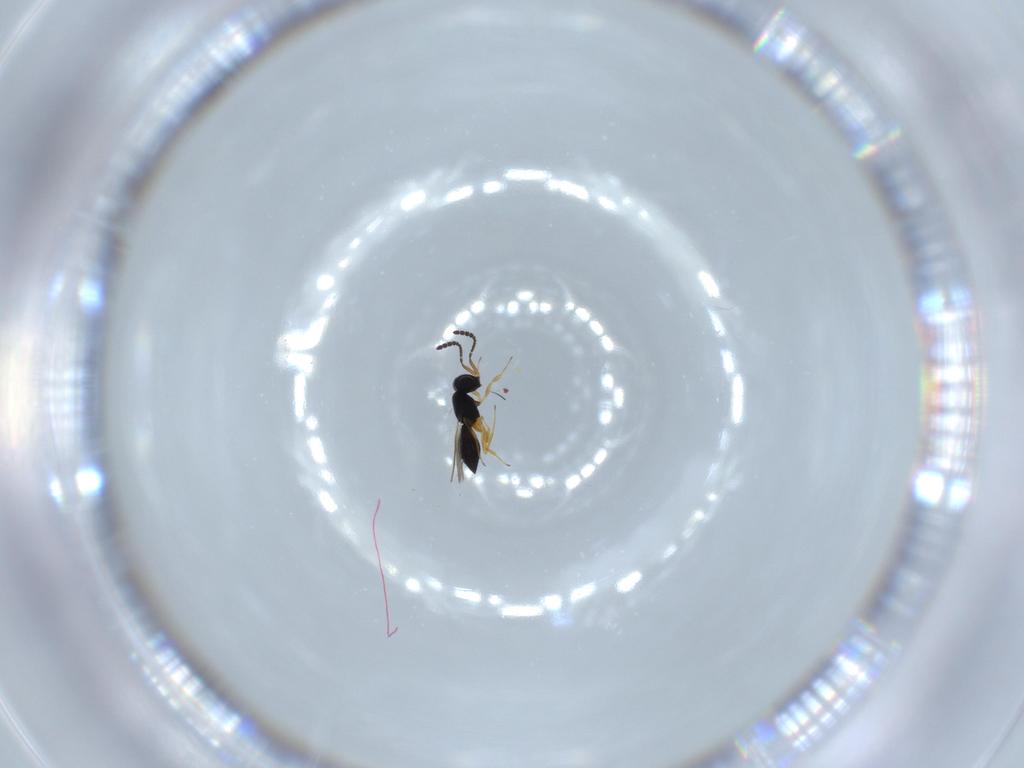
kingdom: Animalia
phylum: Arthropoda
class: Insecta
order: Hymenoptera
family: Scelionidae
